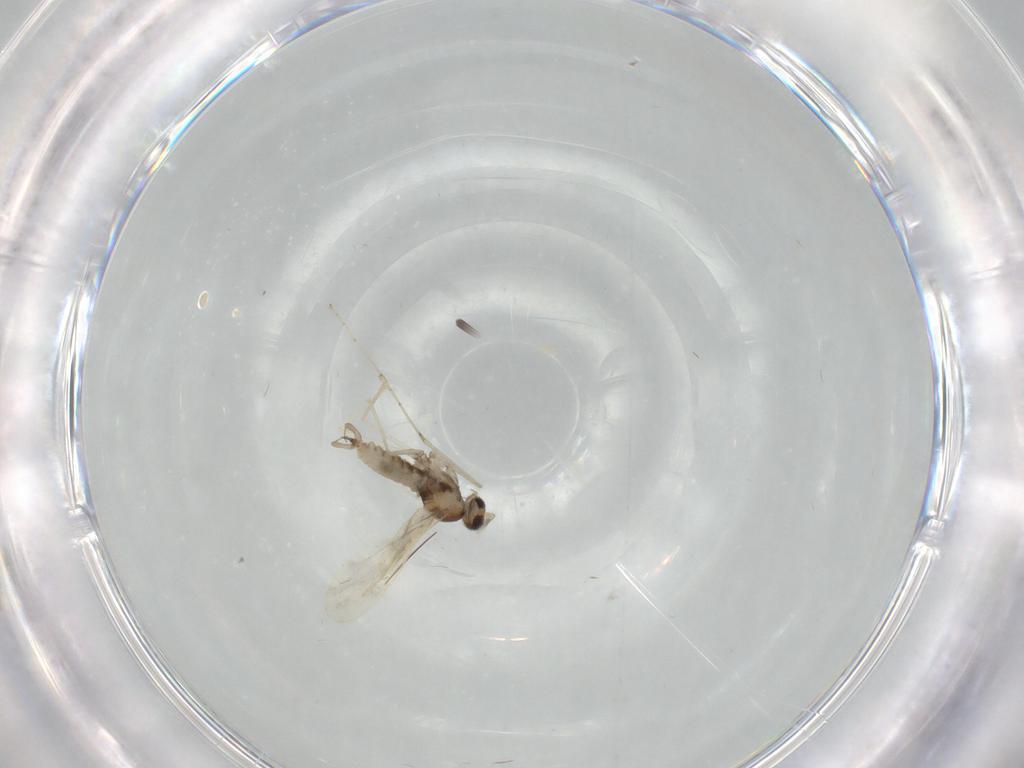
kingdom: Animalia
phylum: Arthropoda
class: Insecta
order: Diptera
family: Cecidomyiidae
